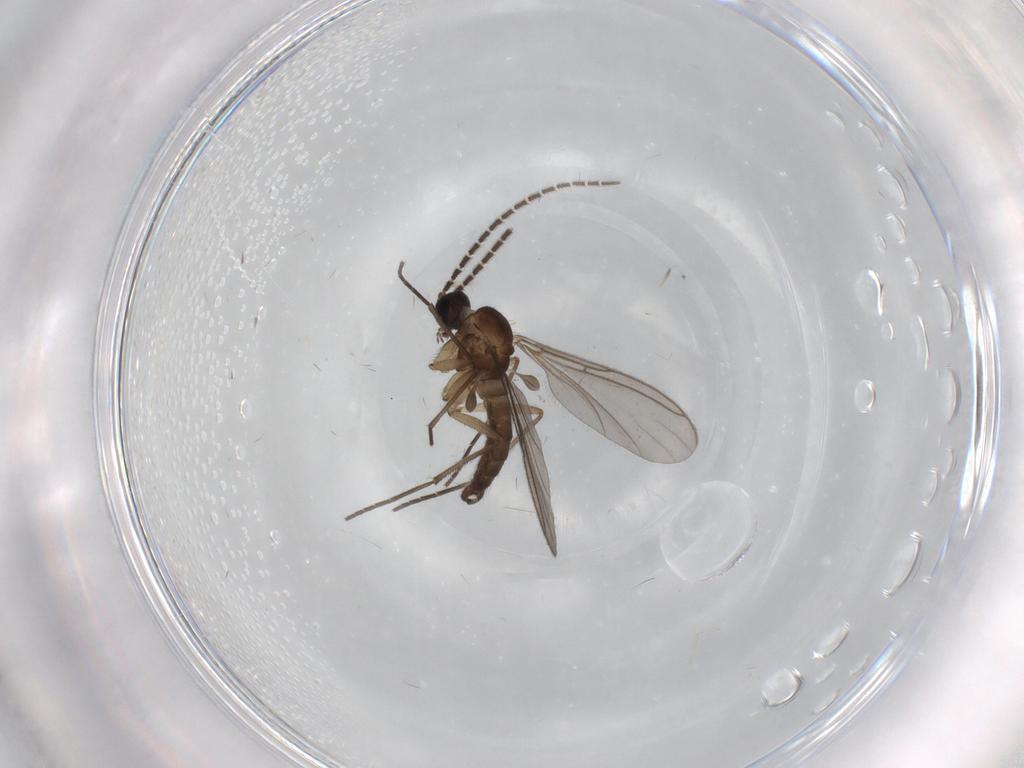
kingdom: Animalia
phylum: Arthropoda
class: Insecta
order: Diptera
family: Sciaridae
